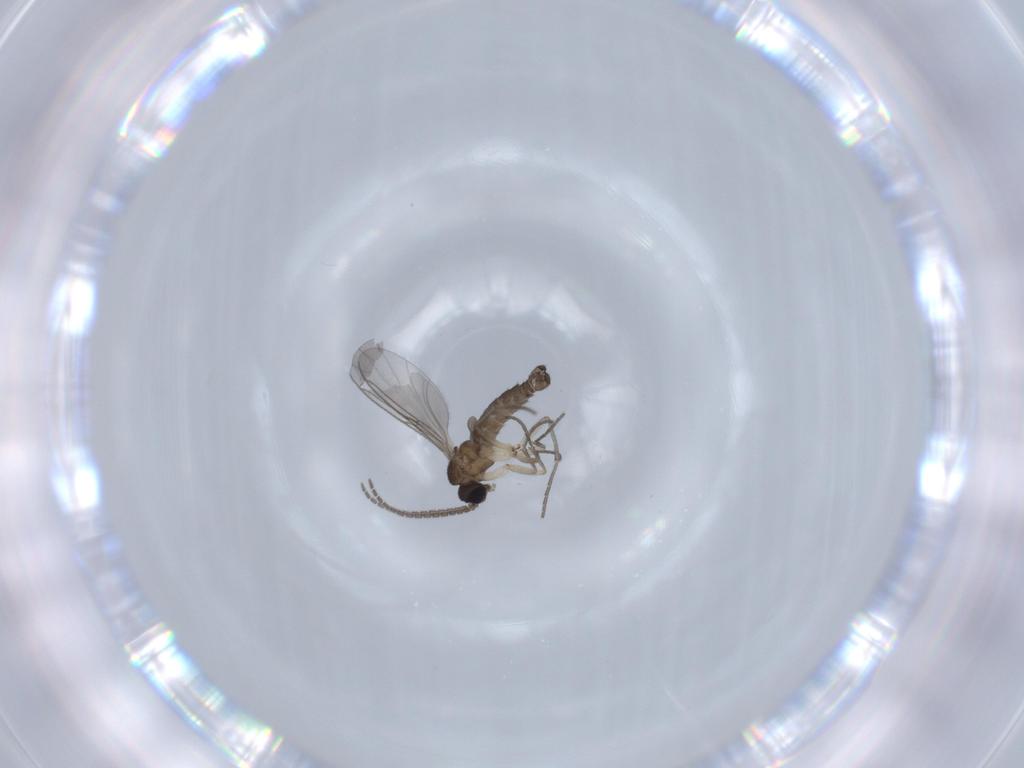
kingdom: Animalia
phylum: Arthropoda
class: Insecta
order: Diptera
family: Sciaridae
